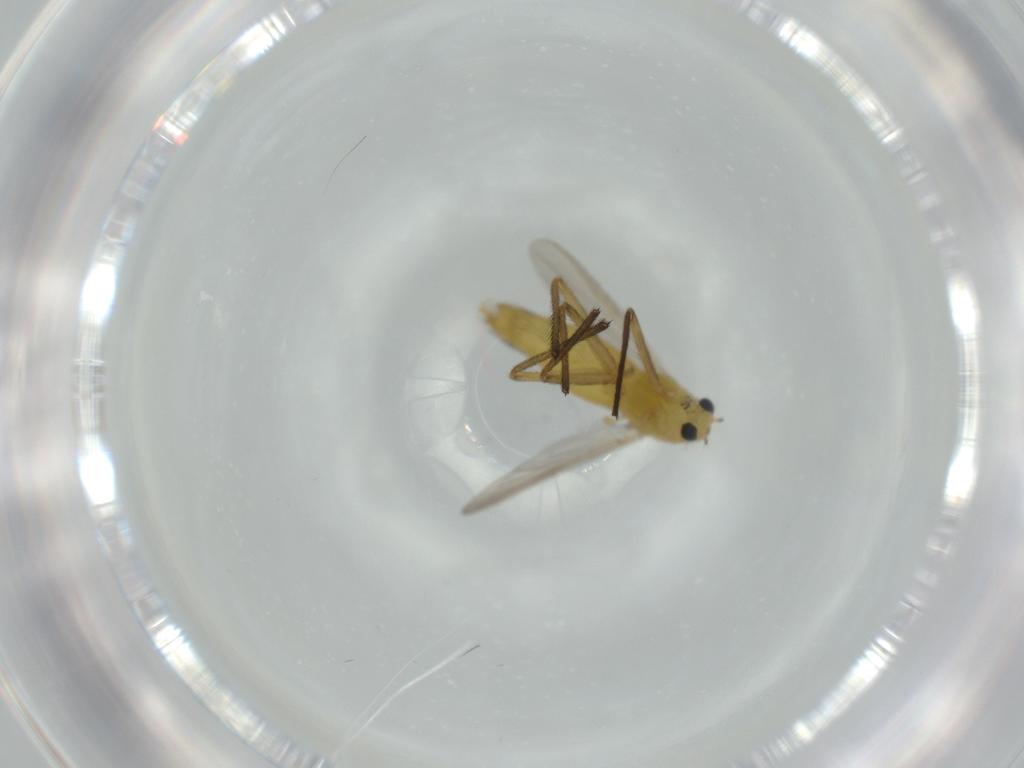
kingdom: Animalia
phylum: Arthropoda
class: Insecta
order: Diptera
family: Chironomidae
